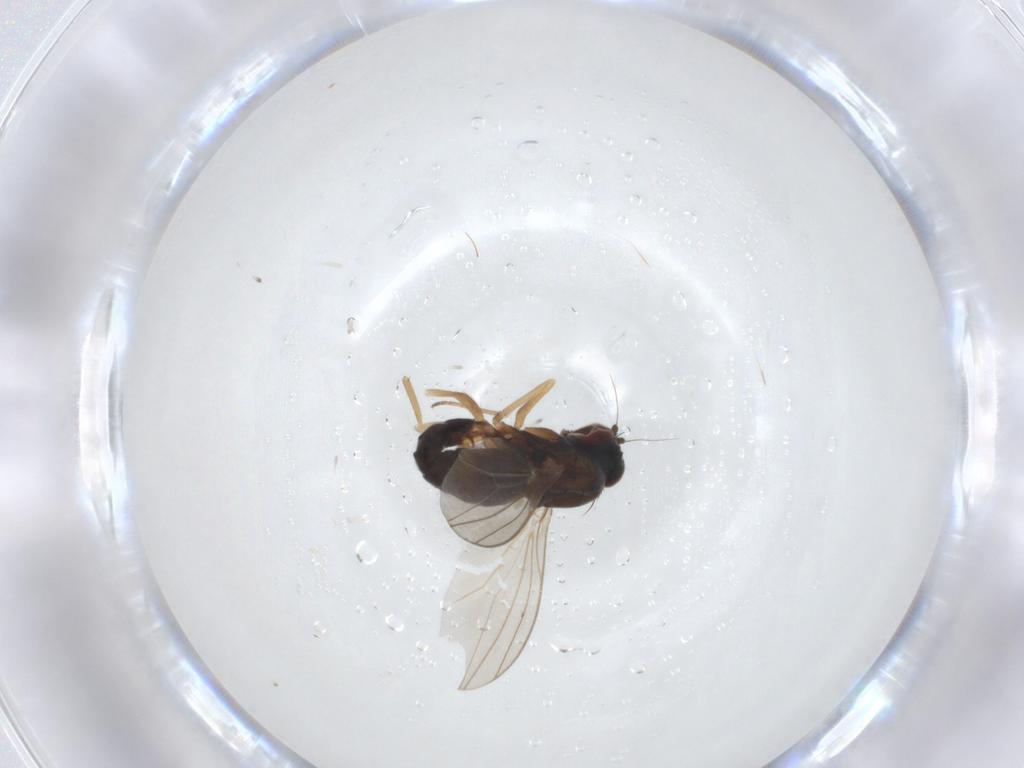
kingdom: Animalia
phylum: Arthropoda
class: Insecta
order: Diptera
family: Dolichopodidae
